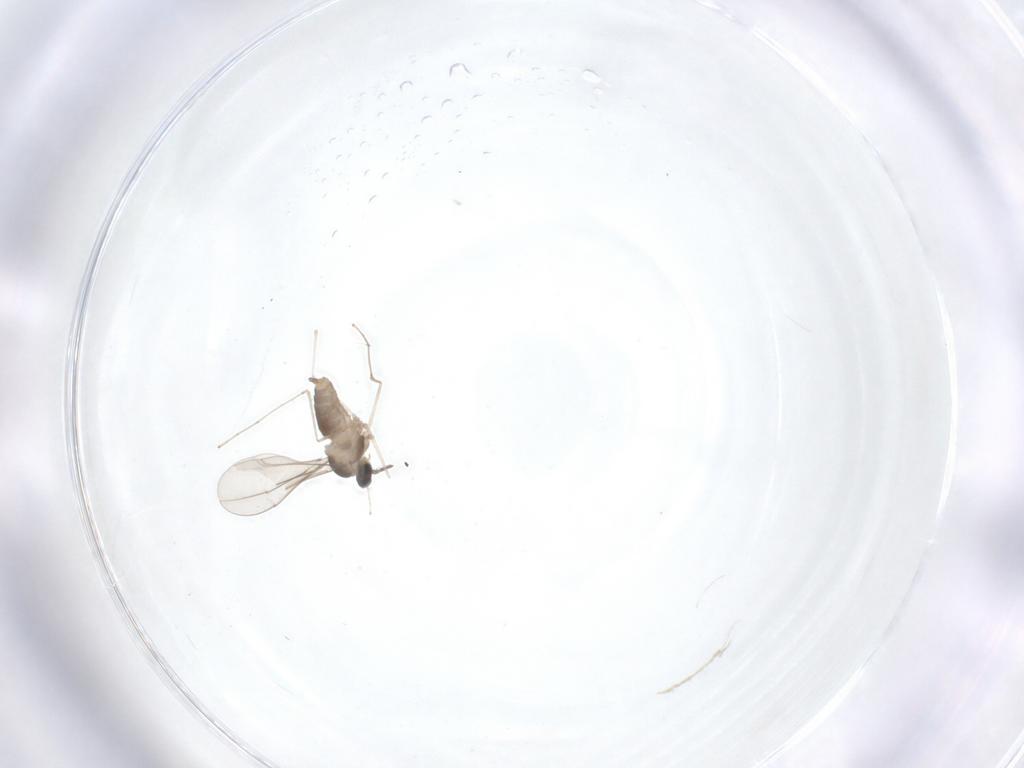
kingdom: Animalia
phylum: Arthropoda
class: Insecta
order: Diptera
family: Cecidomyiidae
